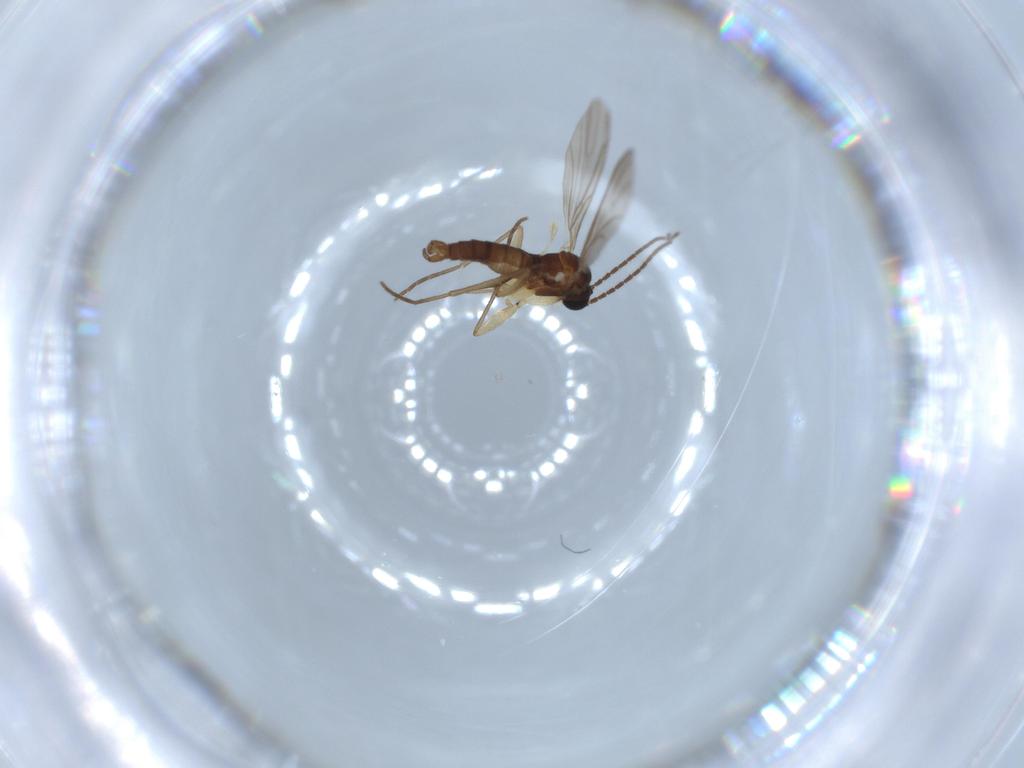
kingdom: Animalia
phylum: Arthropoda
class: Insecta
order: Diptera
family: Sciaridae
